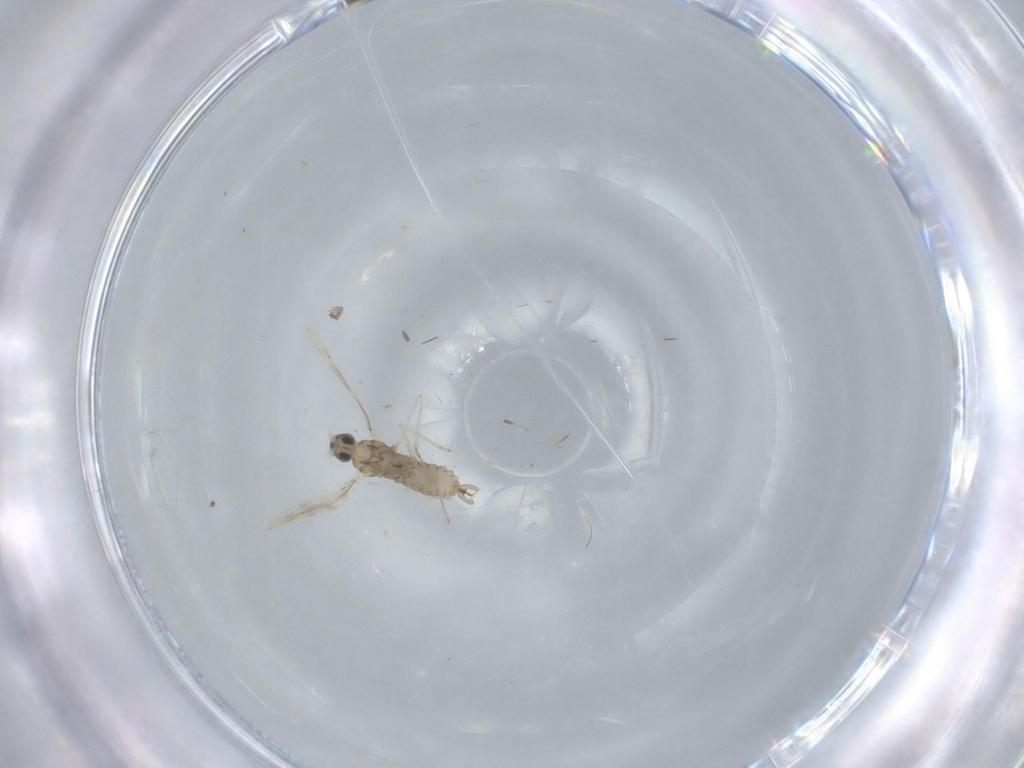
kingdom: Animalia
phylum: Arthropoda
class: Insecta
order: Diptera
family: Cecidomyiidae
